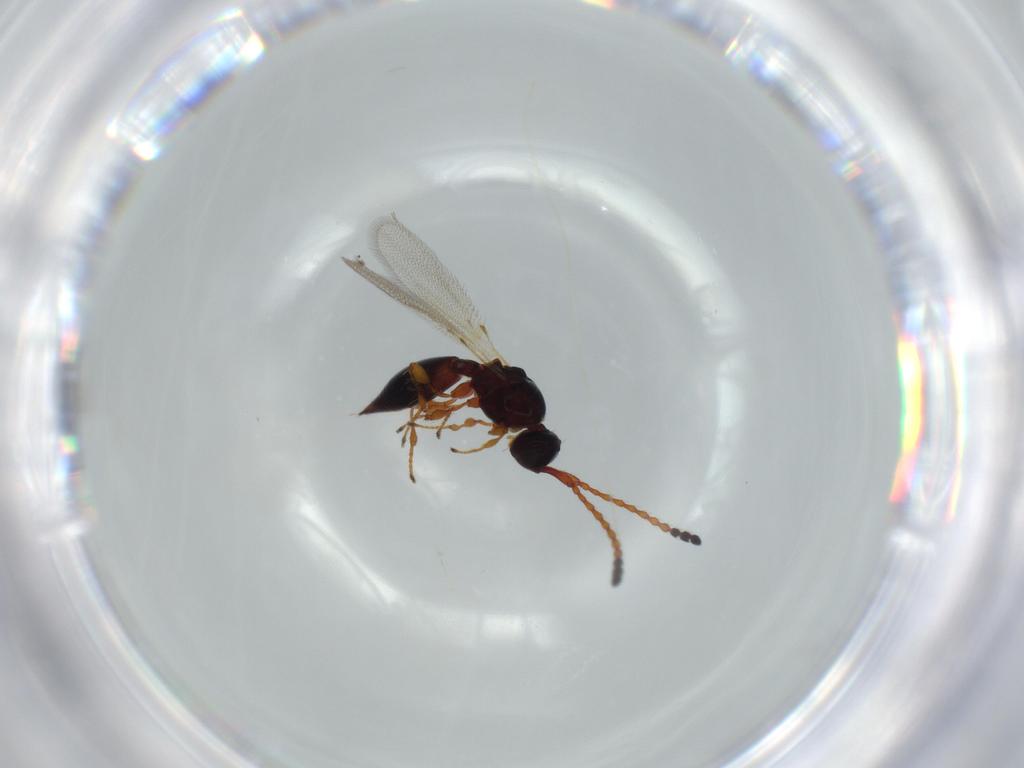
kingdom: Animalia
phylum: Arthropoda
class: Insecta
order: Hymenoptera
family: Diapriidae
